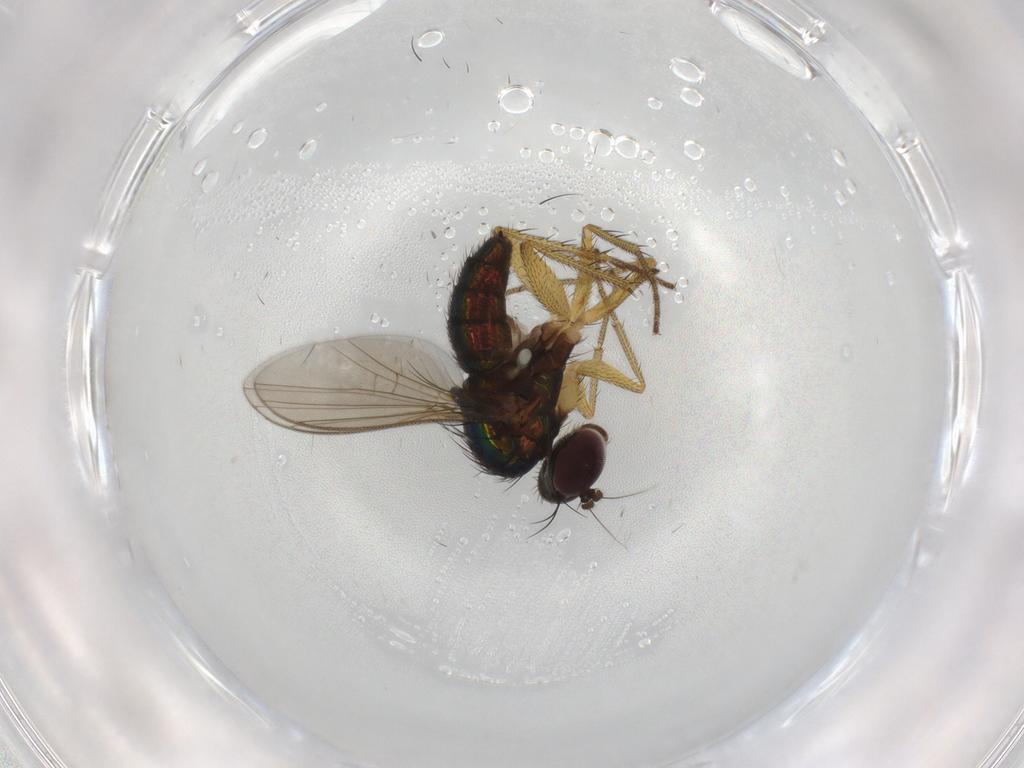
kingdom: Animalia
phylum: Arthropoda
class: Insecta
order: Diptera
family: Dolichopodidae
